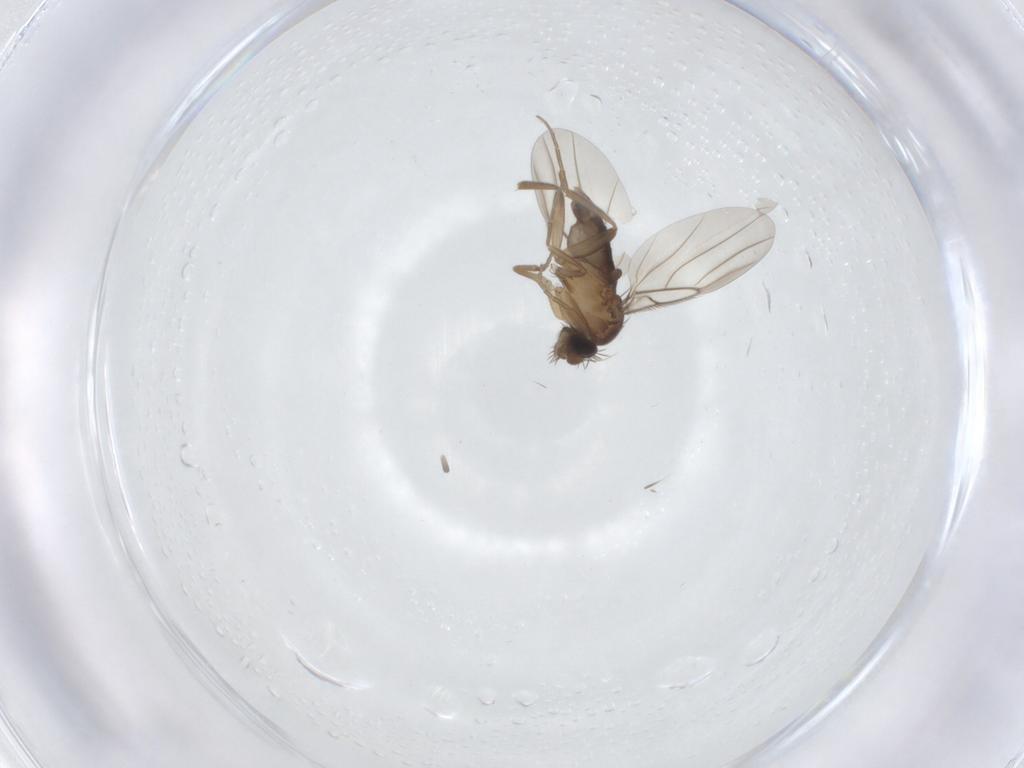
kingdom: Animalia
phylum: Arthropoda
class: Insecta
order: Diptera
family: Phoridae
